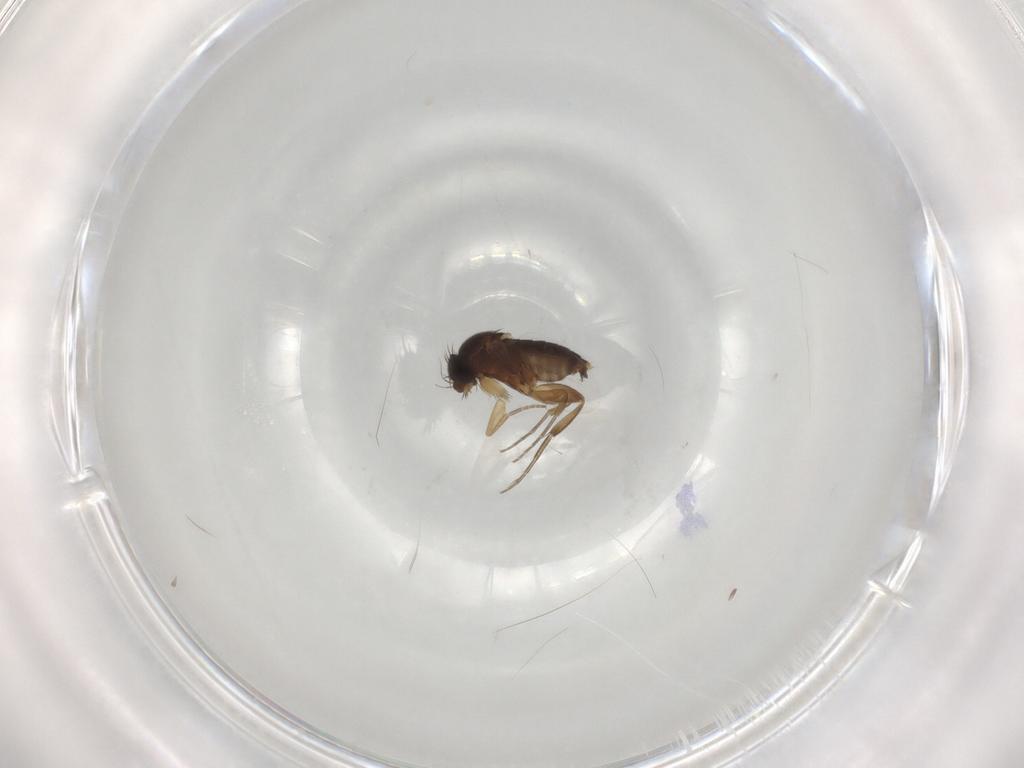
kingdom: Animalia
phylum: Arthropoda
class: Insecta
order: Diptera
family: Phoridae
